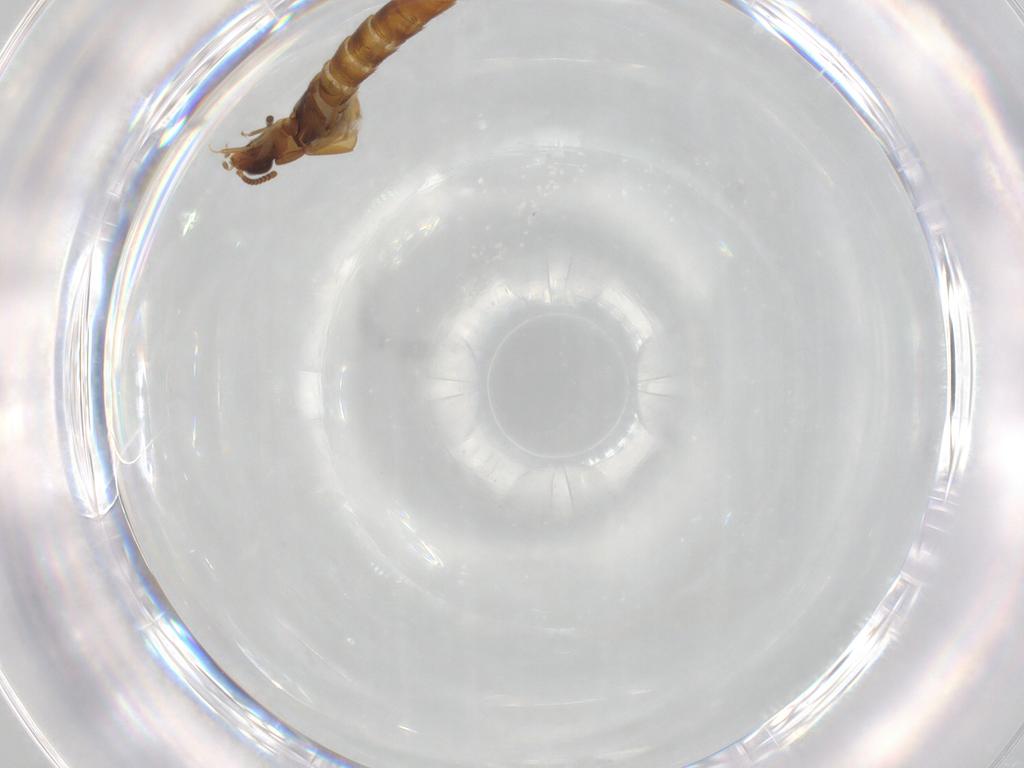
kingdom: Animalia
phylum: Arthropoda
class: Insecta
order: Coleoptera
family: Staphylinidae
